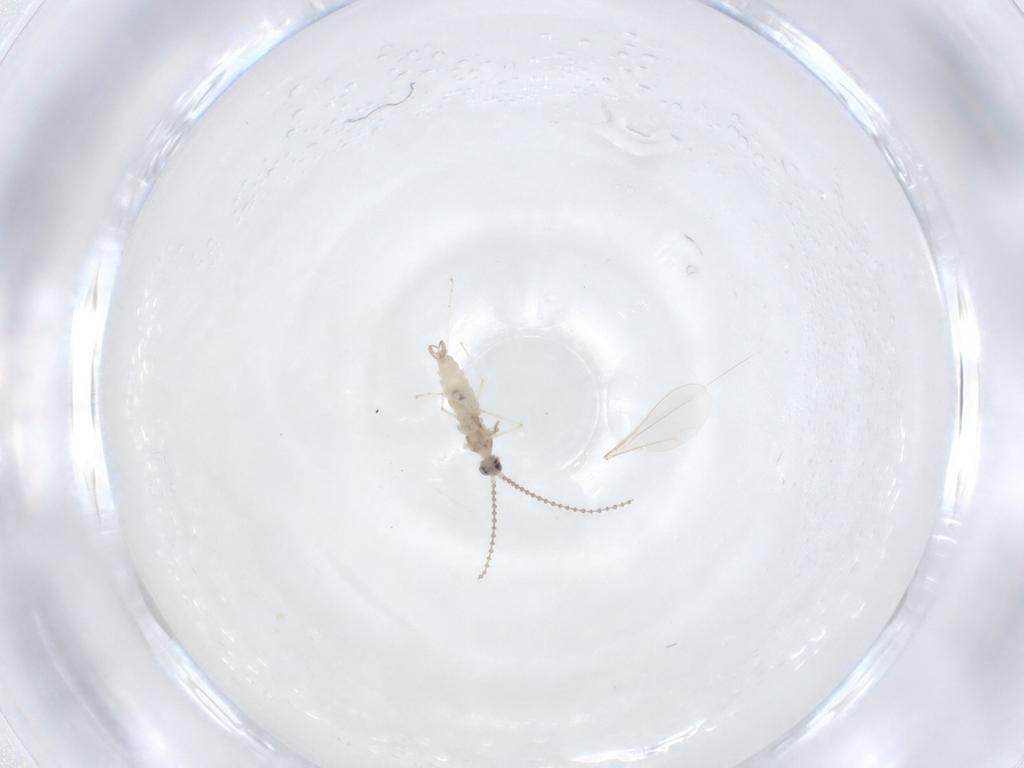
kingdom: Animalia
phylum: Arthropoda
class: Insecta
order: Diptera
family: Cecidomyiidae
